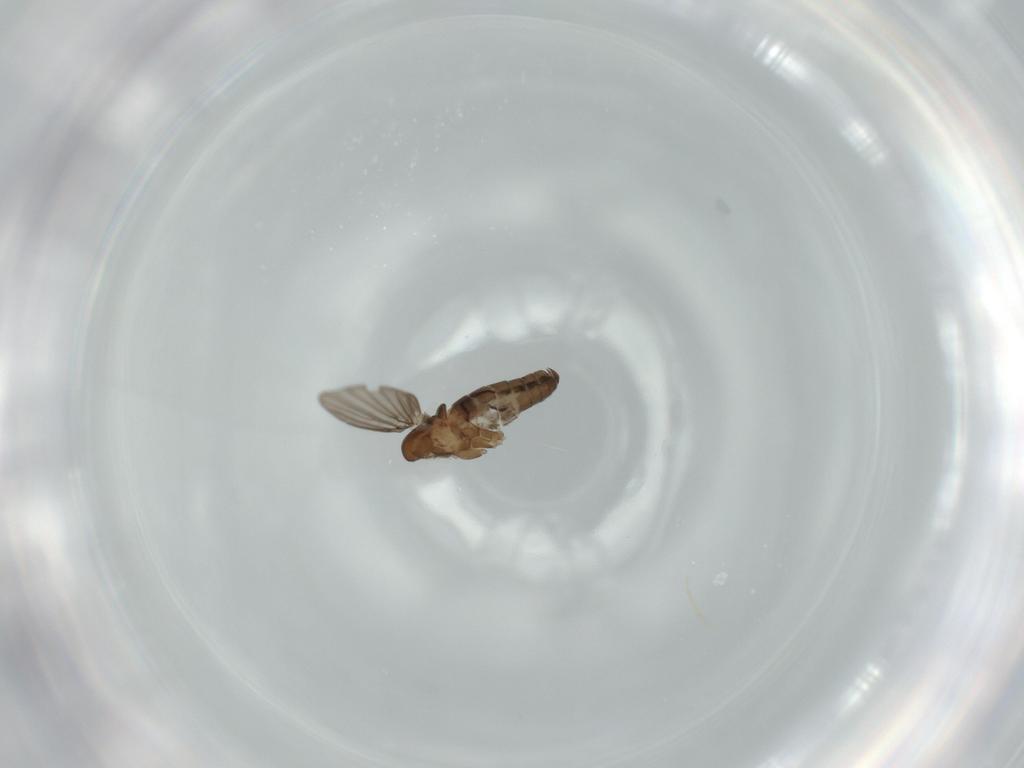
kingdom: Animalia
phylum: Arthropoda
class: Insecta
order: Diptera
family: Psychodidae
